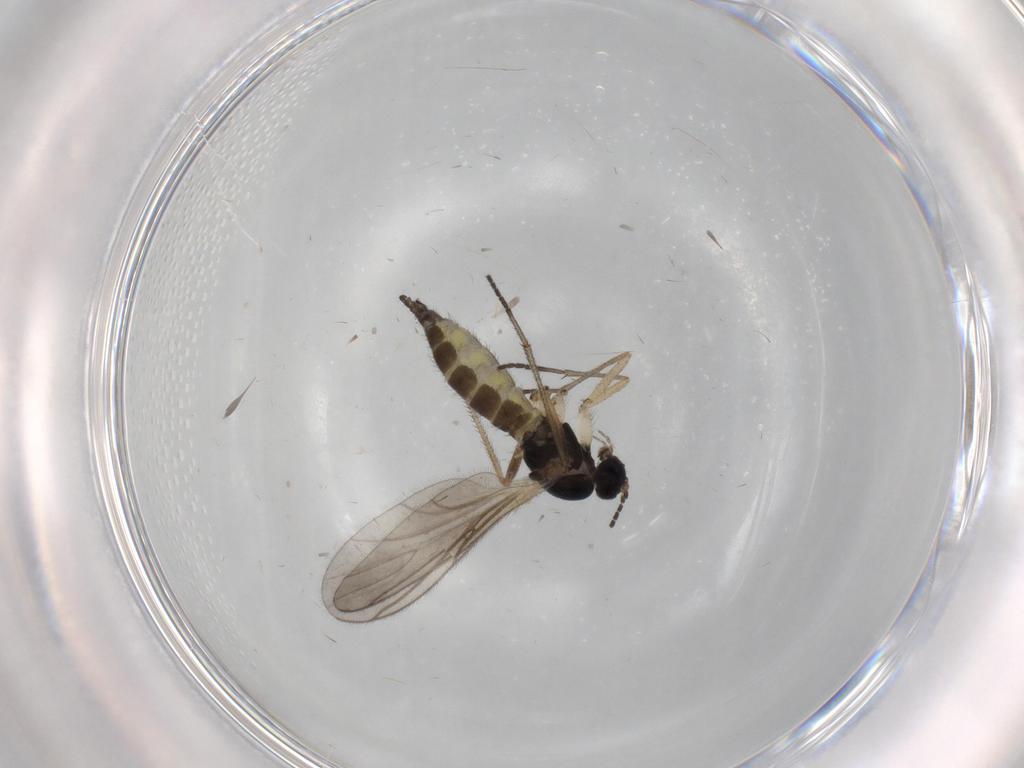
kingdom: Animalia
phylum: Arthropoda
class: Insecta
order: Diptera
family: Sciaridae
